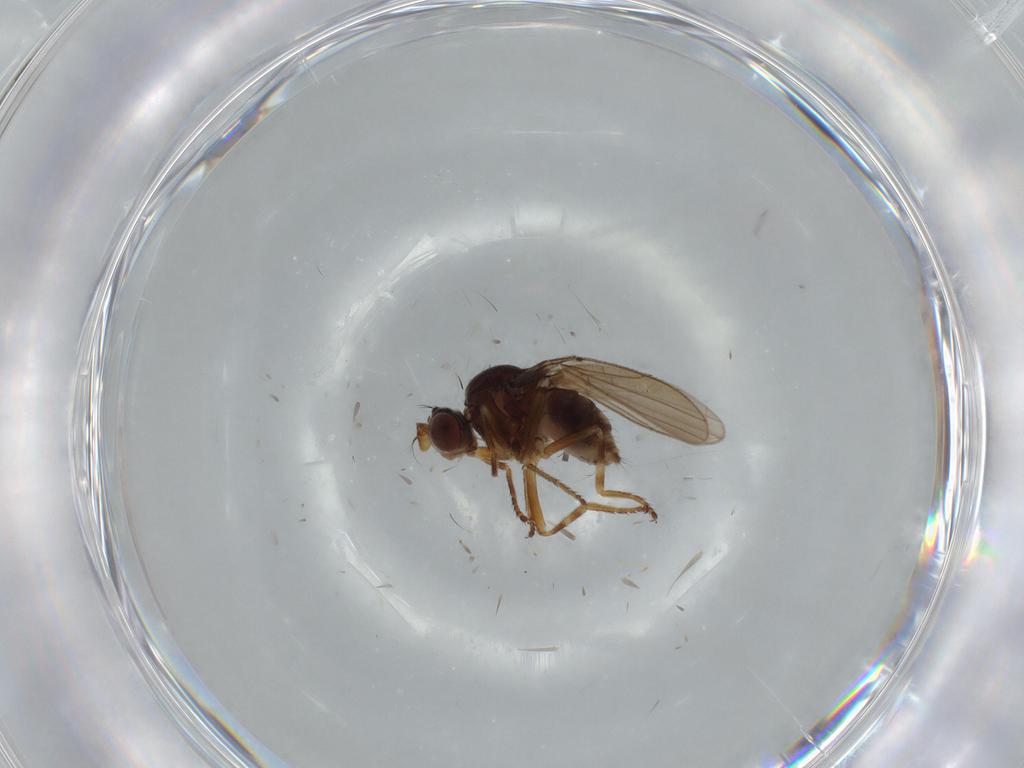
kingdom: Animalia
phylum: Arthropoda
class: Insecta
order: Diptera
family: Ephydridae
